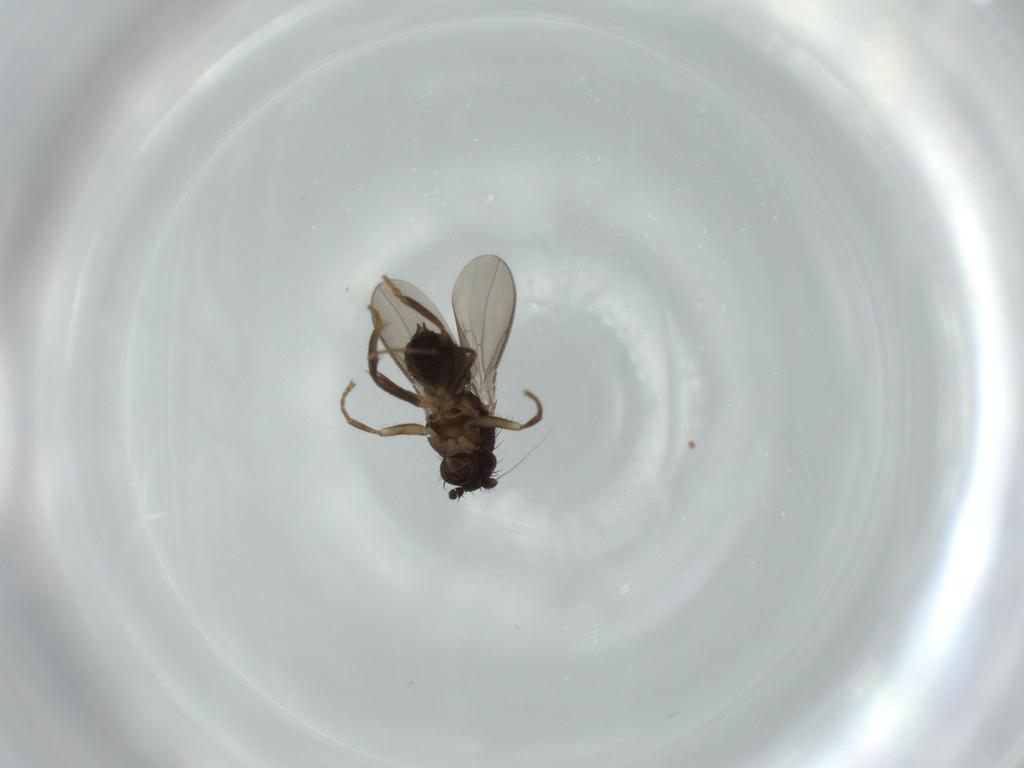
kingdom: Animalia
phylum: Arthropoda
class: Insecta
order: Diptera
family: Sphaeroceridae
